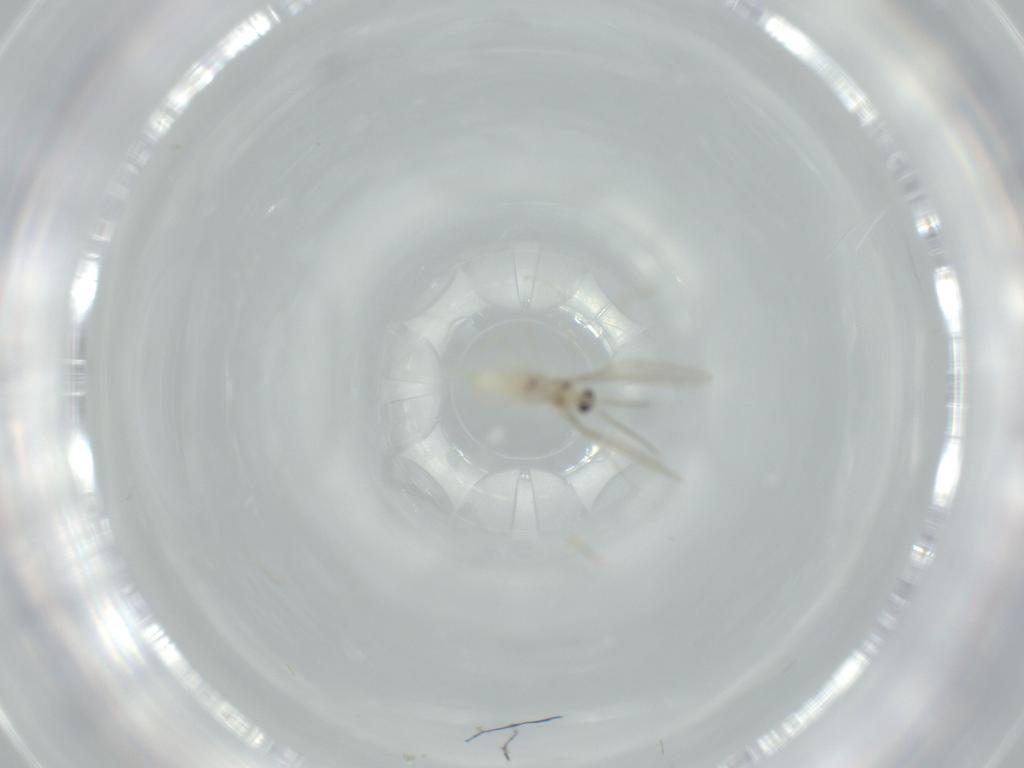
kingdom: Animalia
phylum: Arthropoda
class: Insecta
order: Diptera
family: Cecidomyiidae
